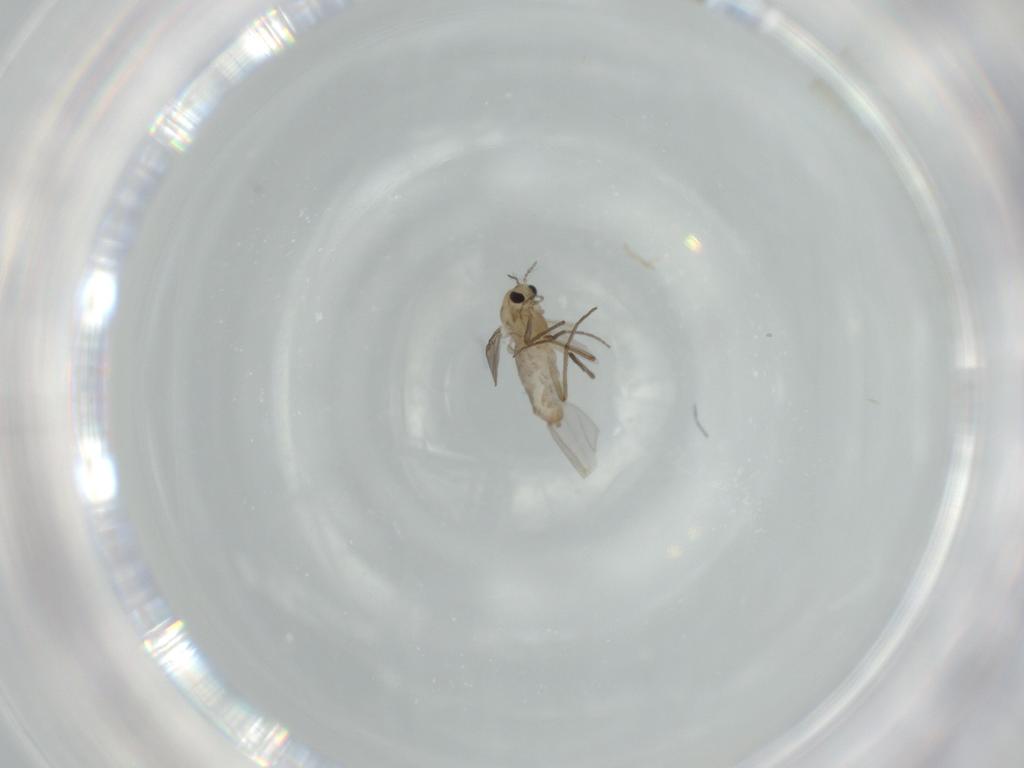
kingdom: Animalia
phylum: Arthropoda
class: Insecta
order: Diptera
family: Chironomidae
